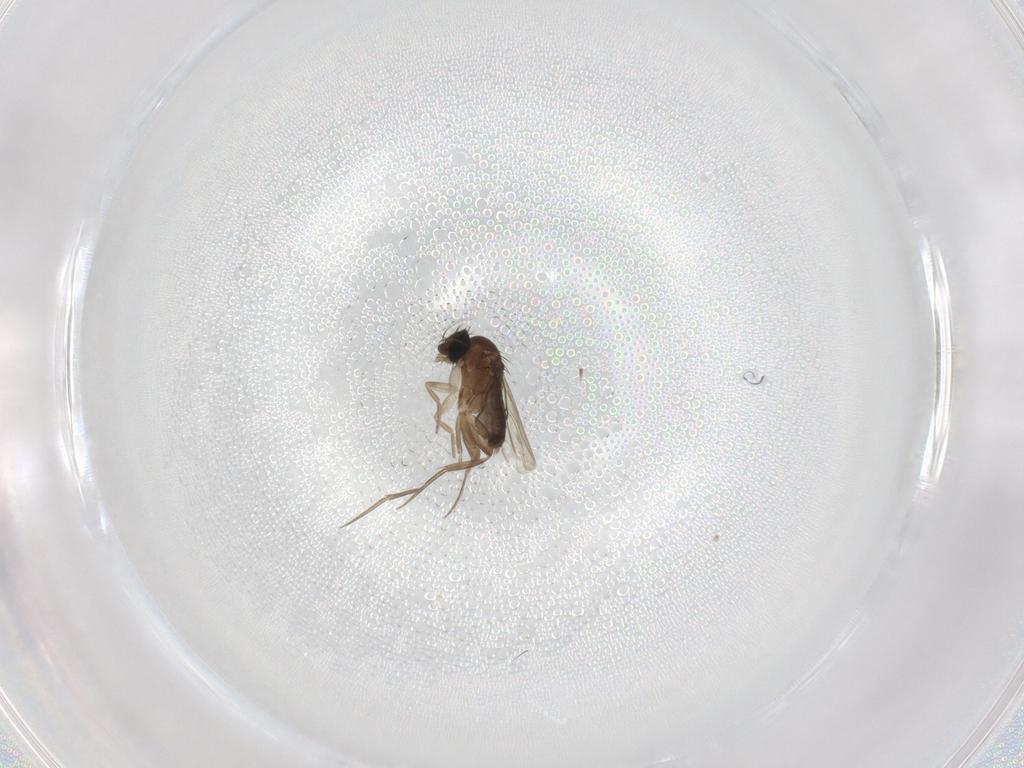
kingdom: Animalia
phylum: Arthropoda
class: Insecta
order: Diptera
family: Phoridae
